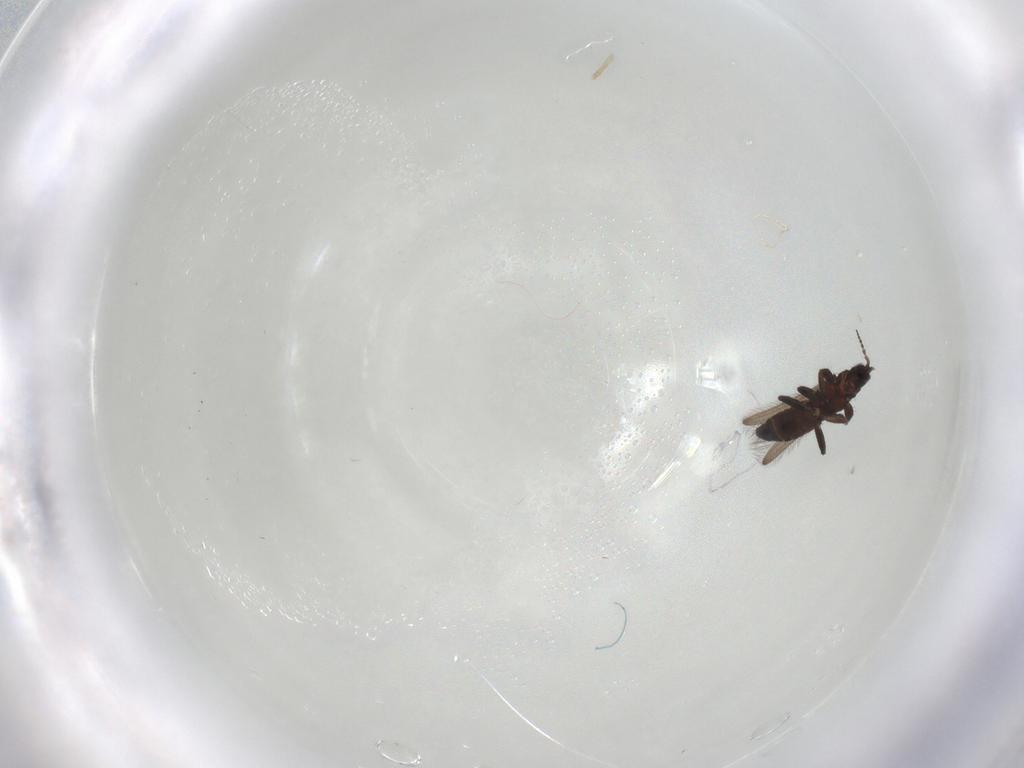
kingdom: Animalia
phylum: Arthropoda
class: Insecta
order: Thysanoptera
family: Melanthripidae
